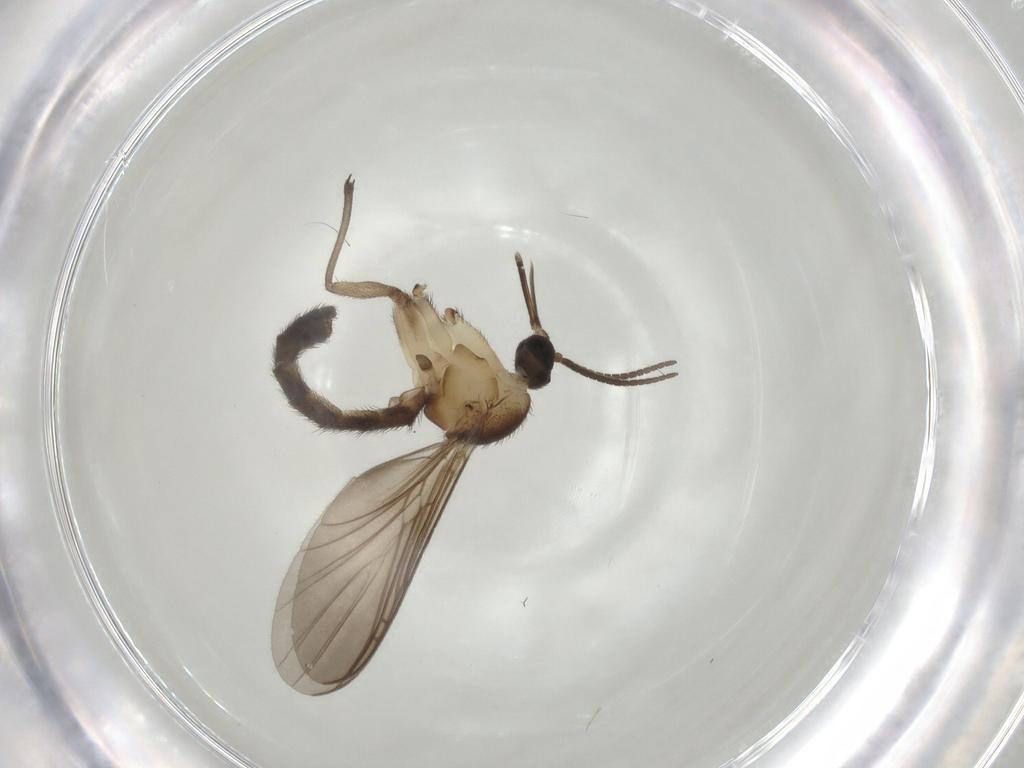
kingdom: Animalia
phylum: Arthropoda
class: Insecta
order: Diptera
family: Keroplatidae
